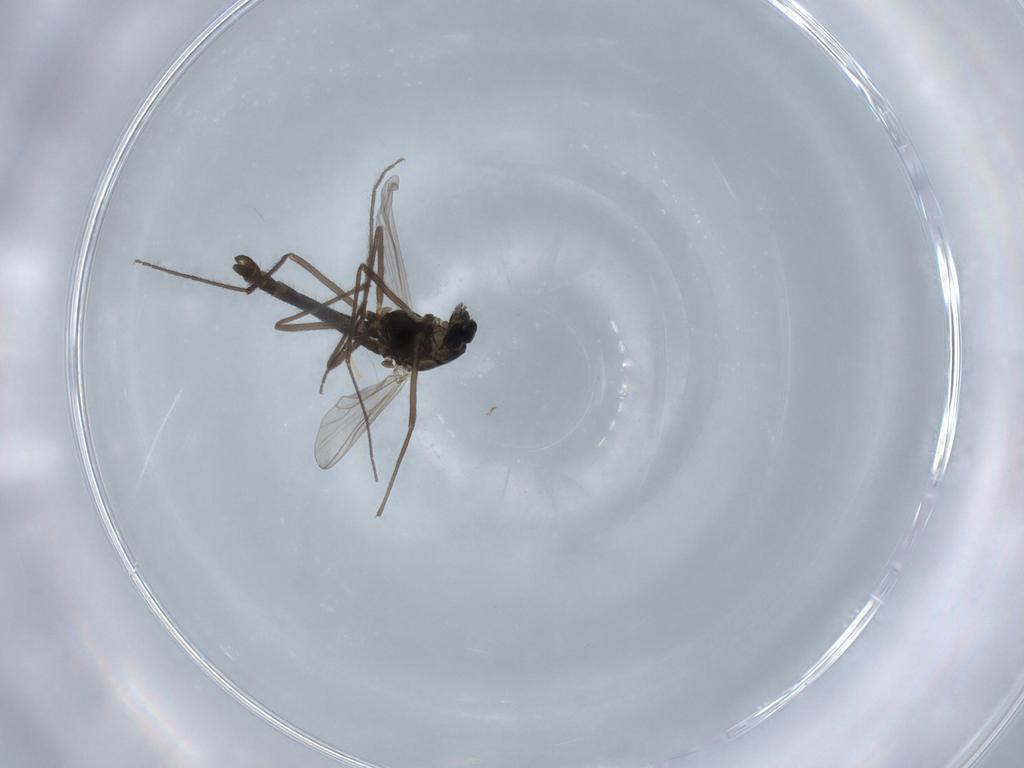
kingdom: Animalia
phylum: Arthropoda
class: Insecta
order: Diptera
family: Chironomidae
